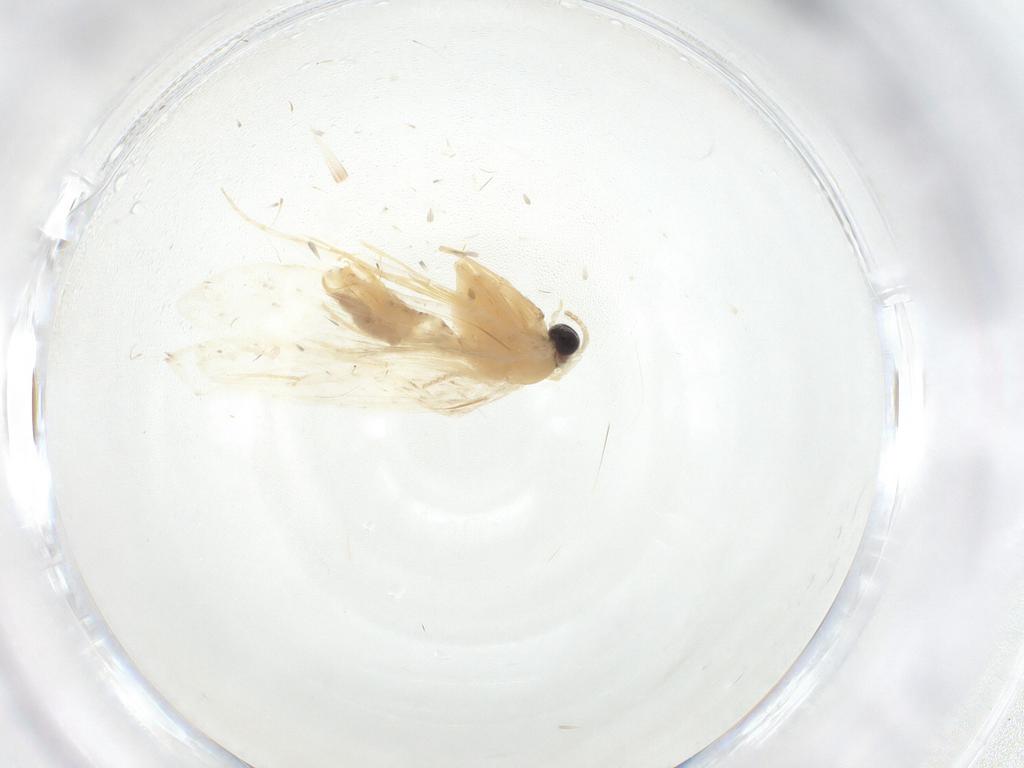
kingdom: Animalia
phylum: Arthropoda
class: Insecta
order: Lepidoptera
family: Psychidae
